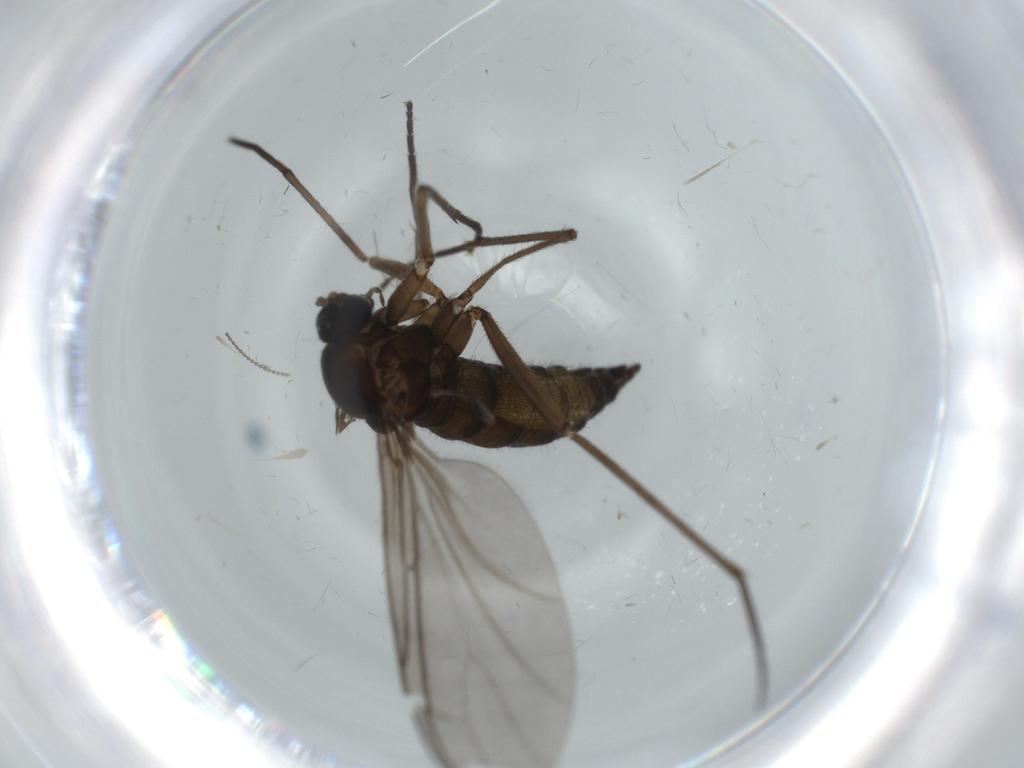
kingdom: Animalia
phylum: Arthropoda
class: Insecta
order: Diptera
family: Sciaridae
